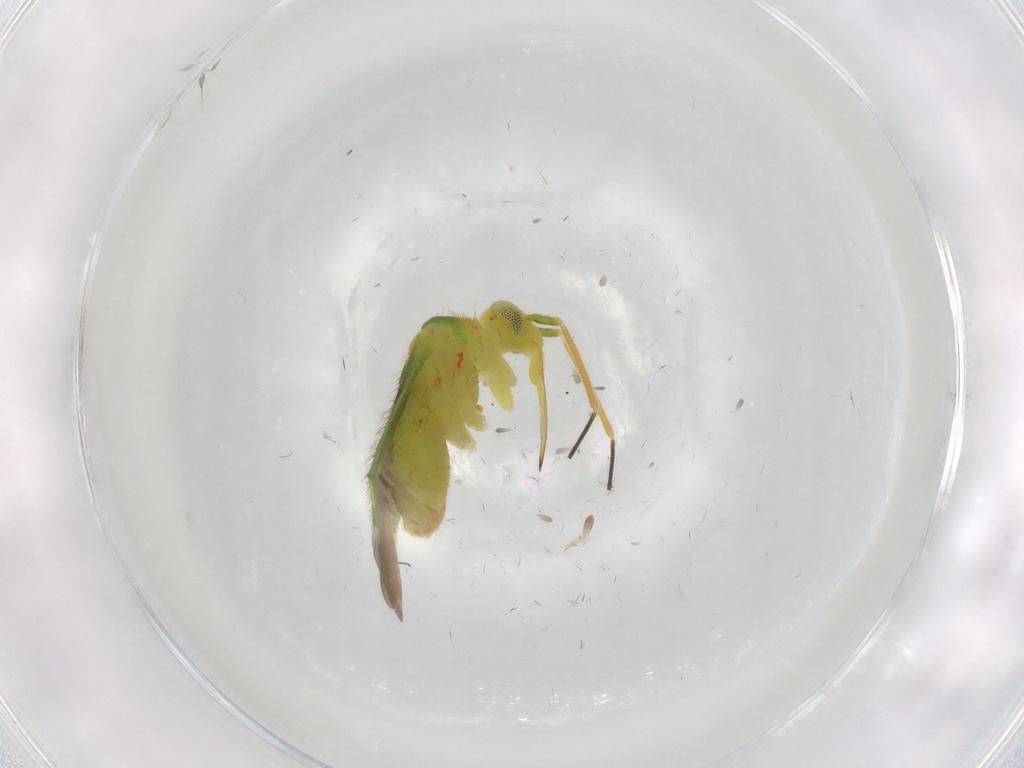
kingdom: Animalia
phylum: Arthropoda
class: Insecta
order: Hemiptera
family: Miridae
